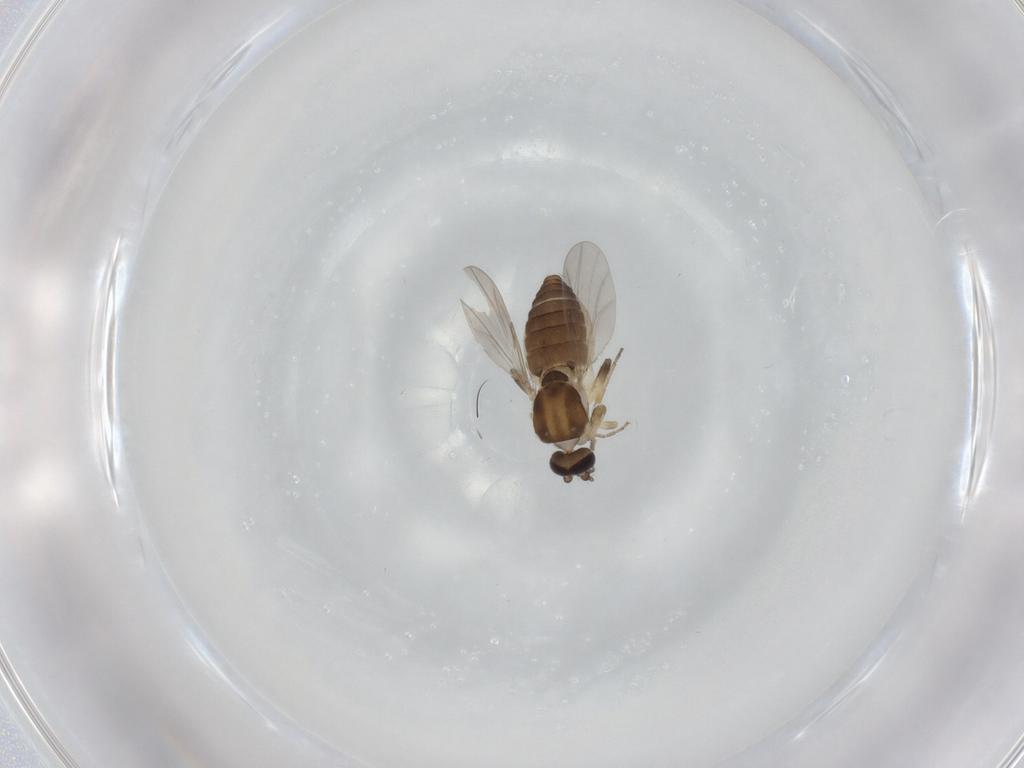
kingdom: Animalia
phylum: Arthropoda
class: Insecta
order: Diptera
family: Ceratopogonidae
